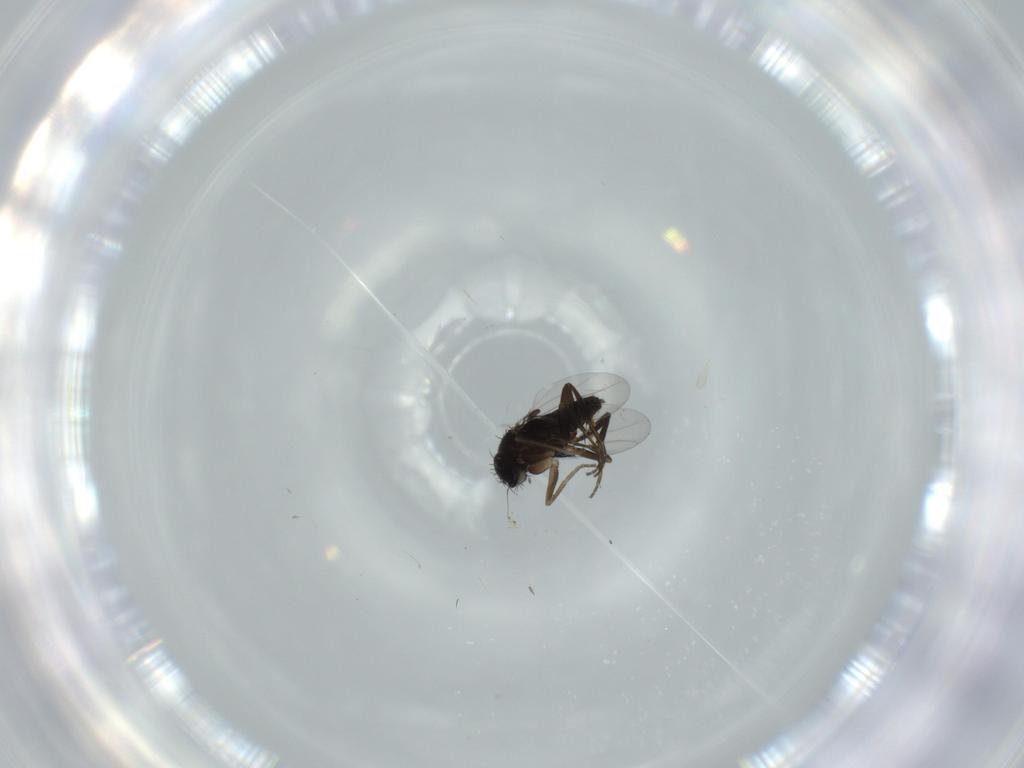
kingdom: Animalia
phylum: Arthropoda
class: Insecta
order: Diptera
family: Phoridae
